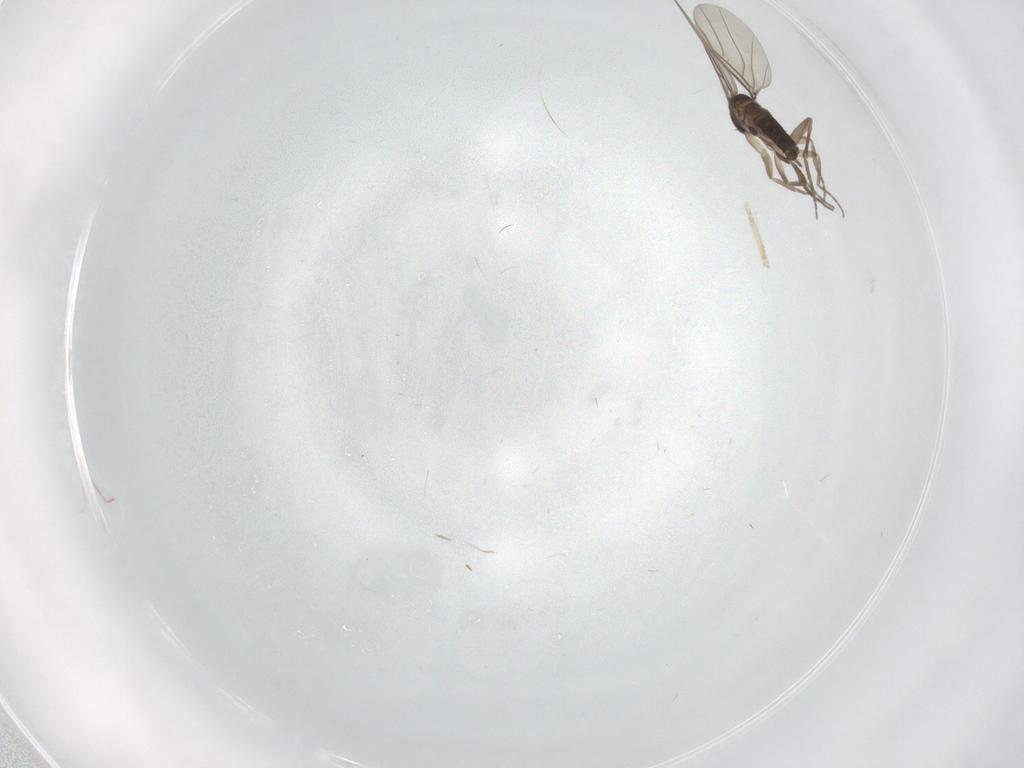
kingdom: Animalia
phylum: Arthropoda
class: Insecta
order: Diptera
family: Phoridae
